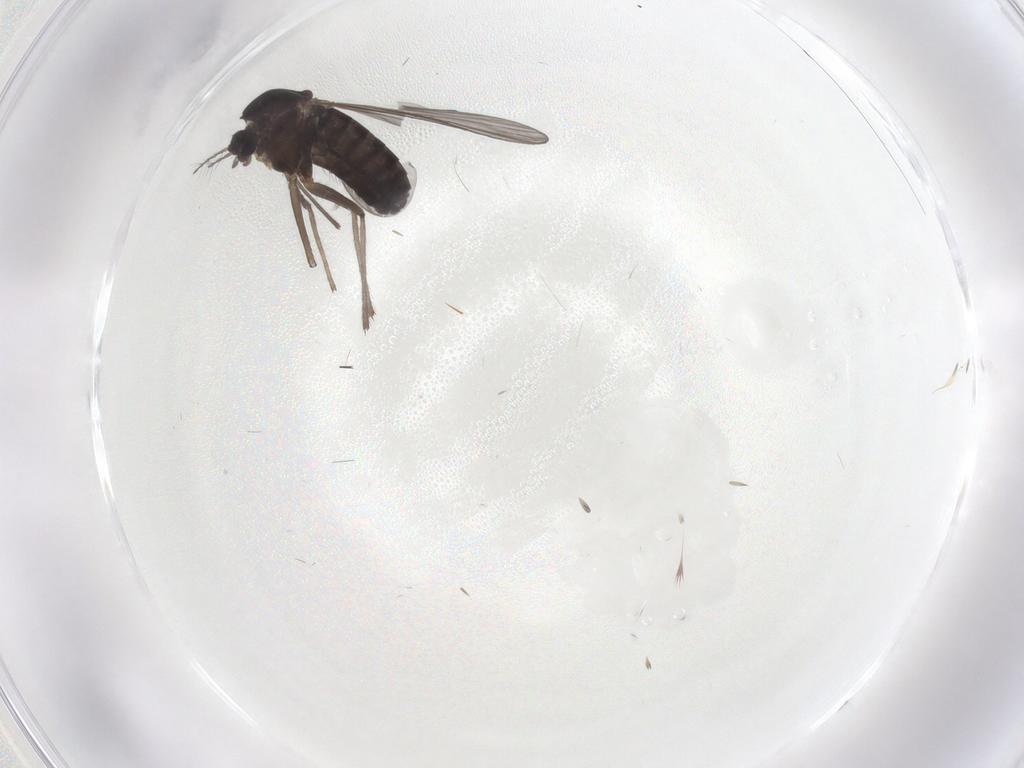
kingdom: Animalia
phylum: Arthropoda
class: Insecta
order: Diptera
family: Chironomidae
